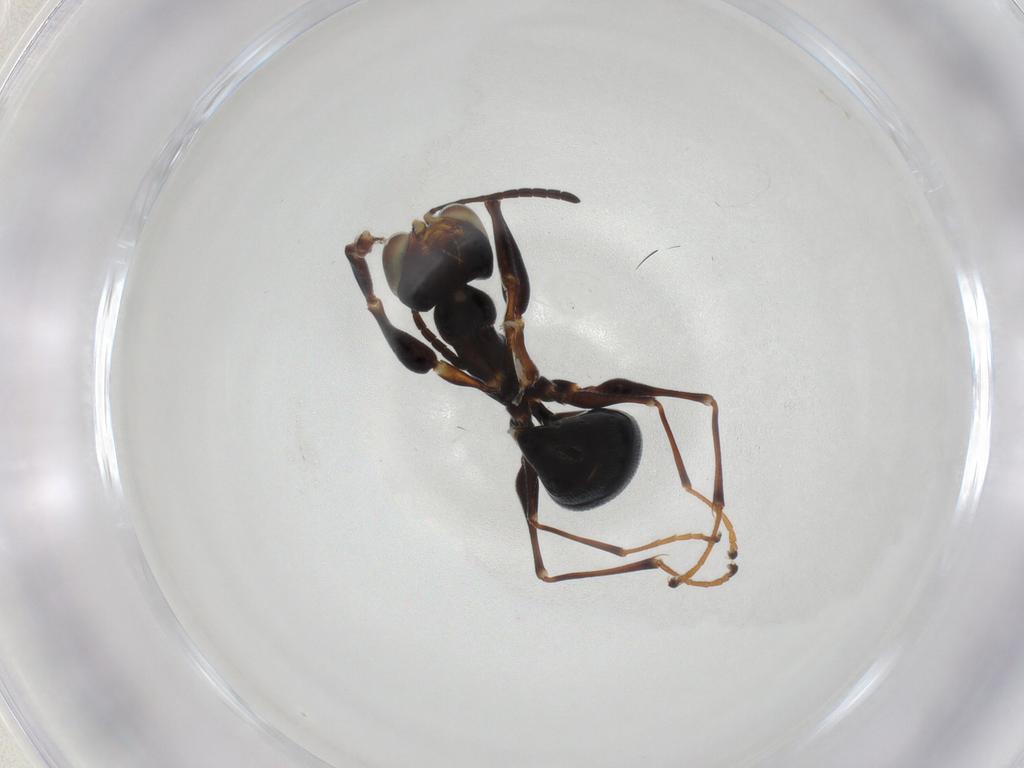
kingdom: Animalia
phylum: Arthropoda
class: Insecta
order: Hymenoptera
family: Dryinidae
